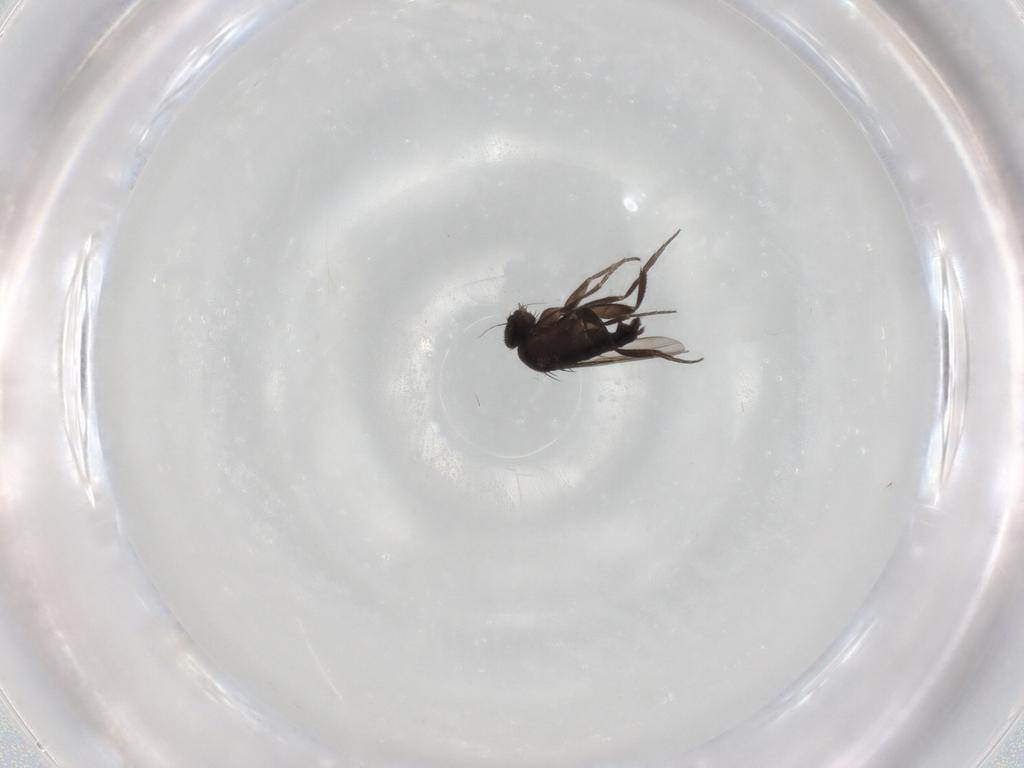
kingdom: Animalia
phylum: Arthropoda
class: Insecta
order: Diptera
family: Phoridae
